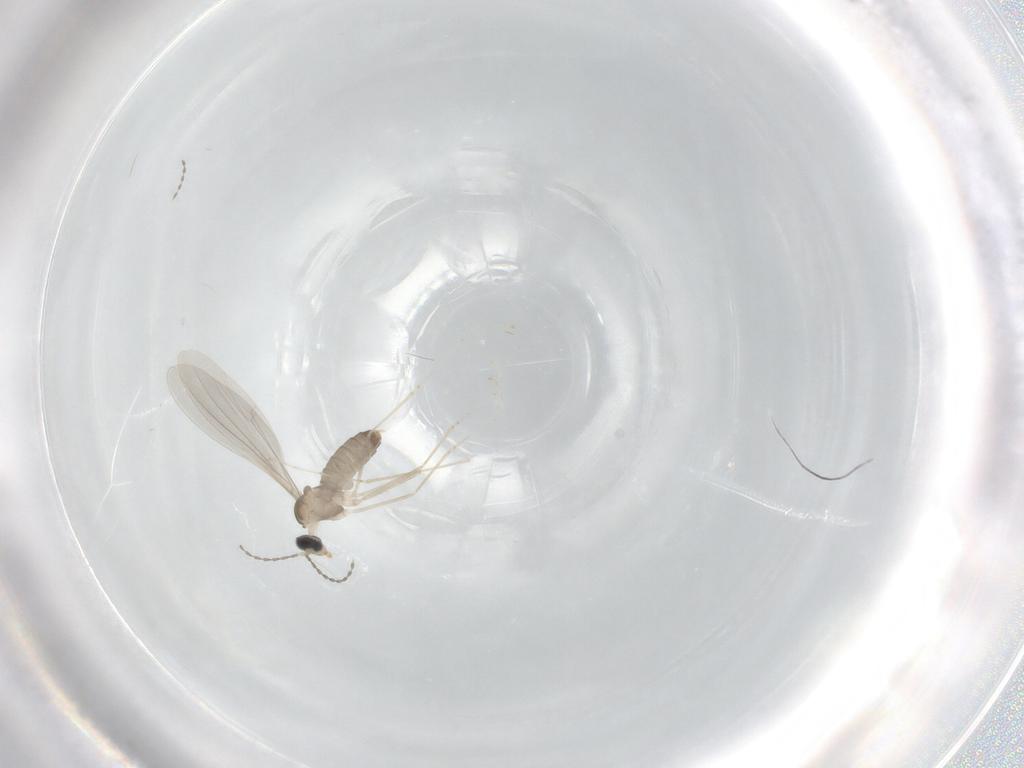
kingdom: Animalia
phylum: Arthropoda
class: Insecta
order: Diptera
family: Cecidomyiidae
